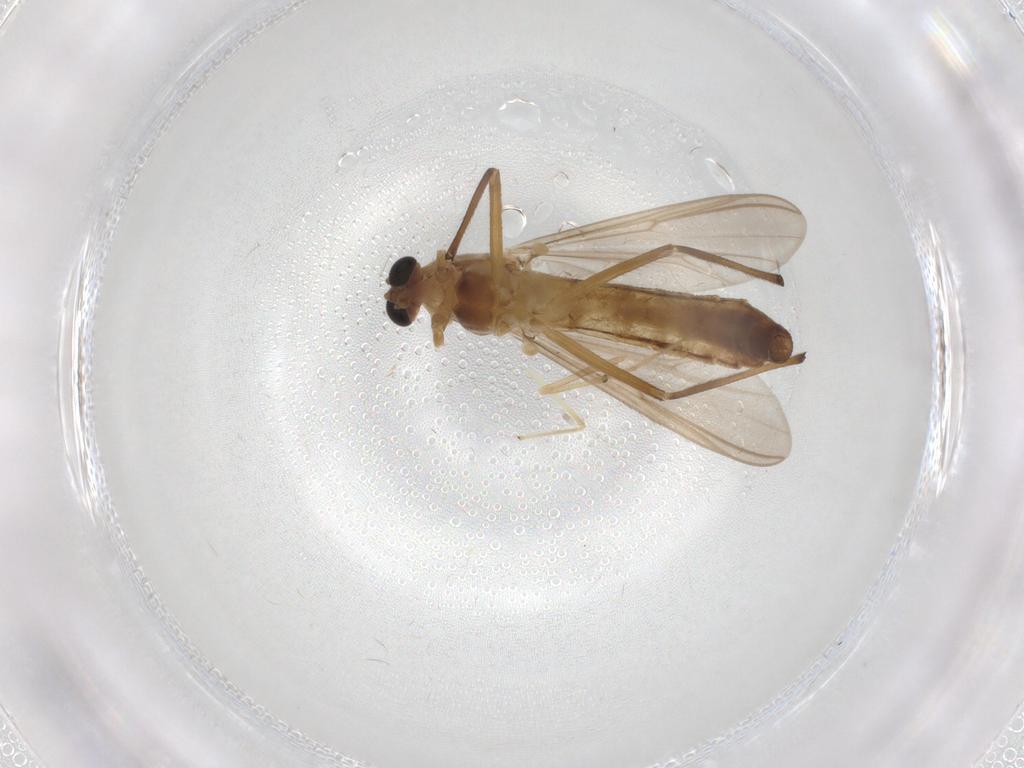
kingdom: Animalia
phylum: Arthropoda
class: Insecta
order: Diptera
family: Chironomidae
